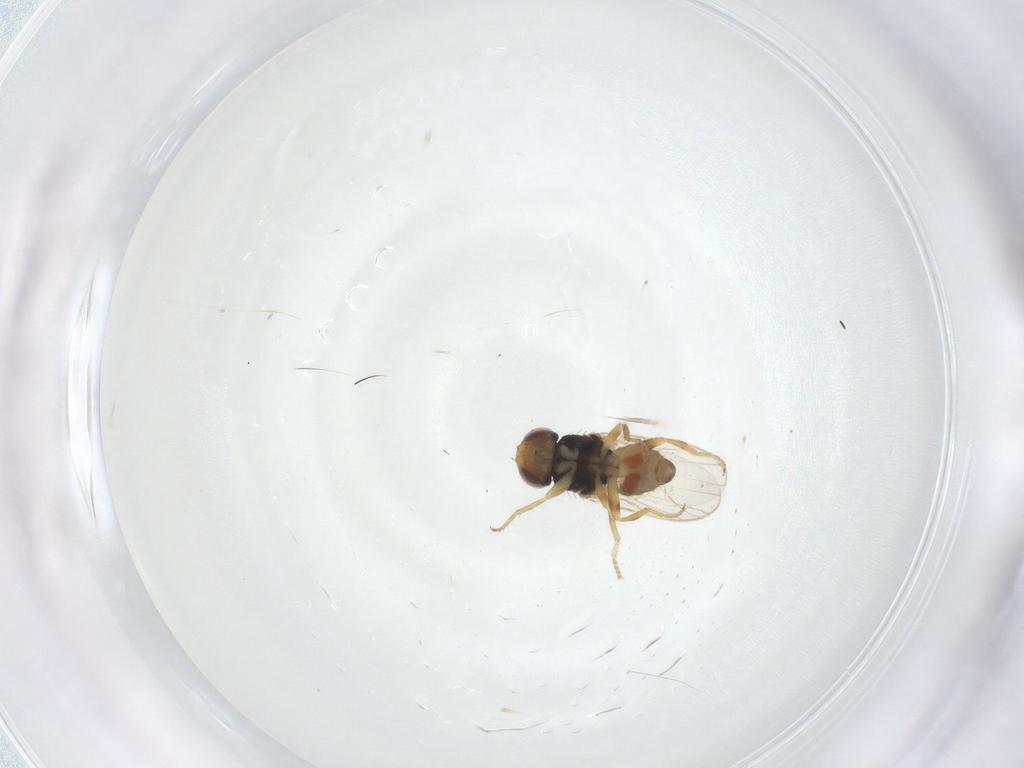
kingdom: Animalia
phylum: Arthropoda
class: Insecta
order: Diptera
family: Chloropidae
